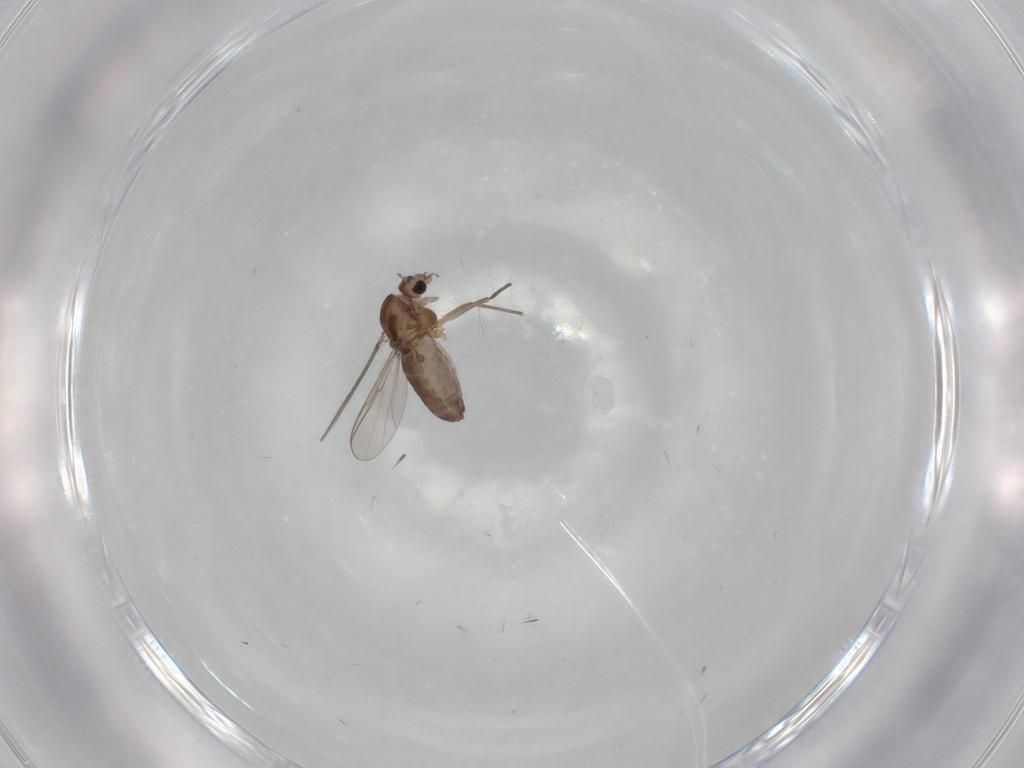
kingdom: Animalia
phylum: Arthropoda
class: Insecta
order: Diptera
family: Chironomidae
